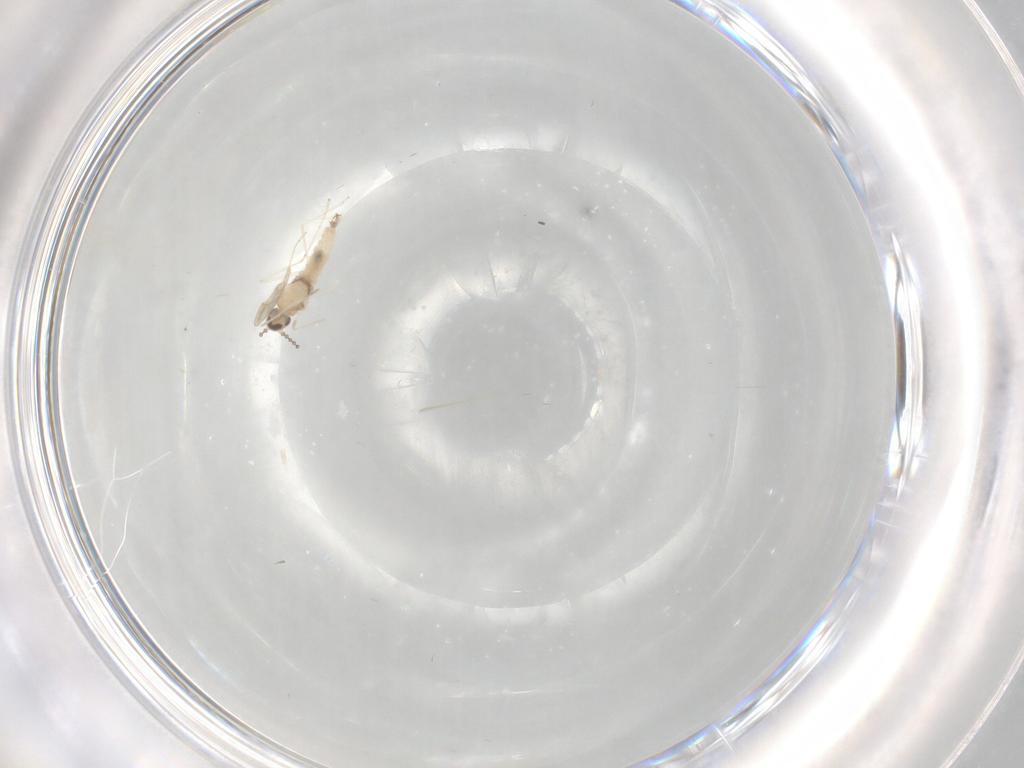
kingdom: Animalia
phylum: Arthropoda
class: Insecta
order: Diptera
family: Cecidomyiidae
